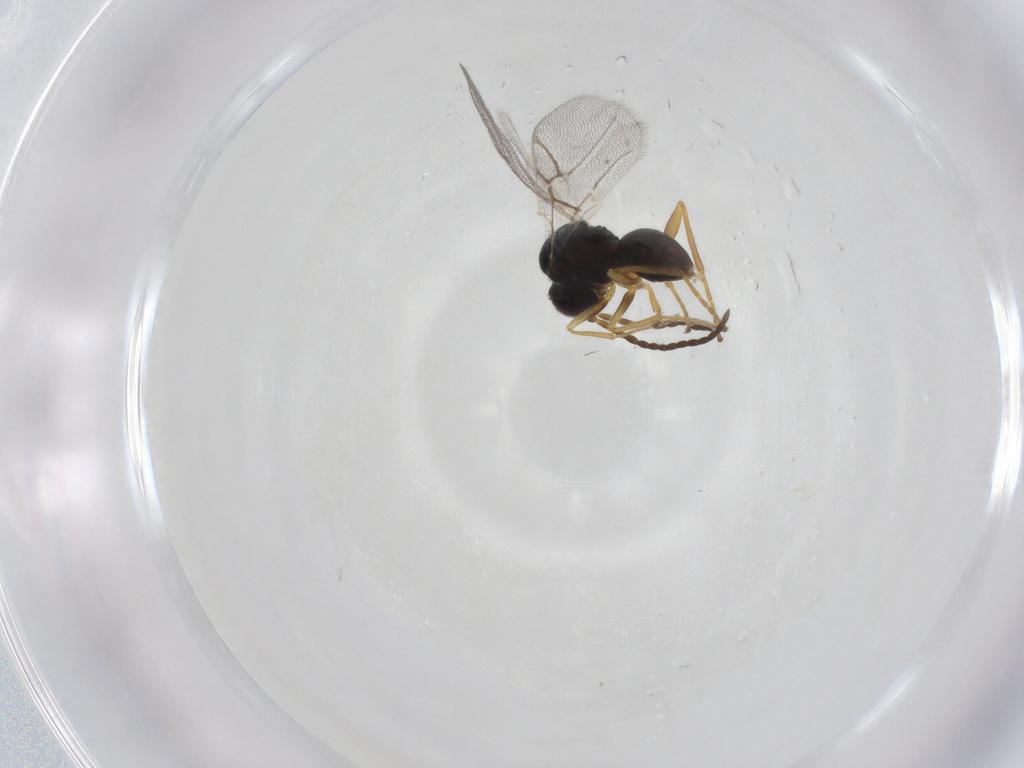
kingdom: Animalia
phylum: Arthropoda
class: Insecta
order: Hymenoptera
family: Cynipidae
